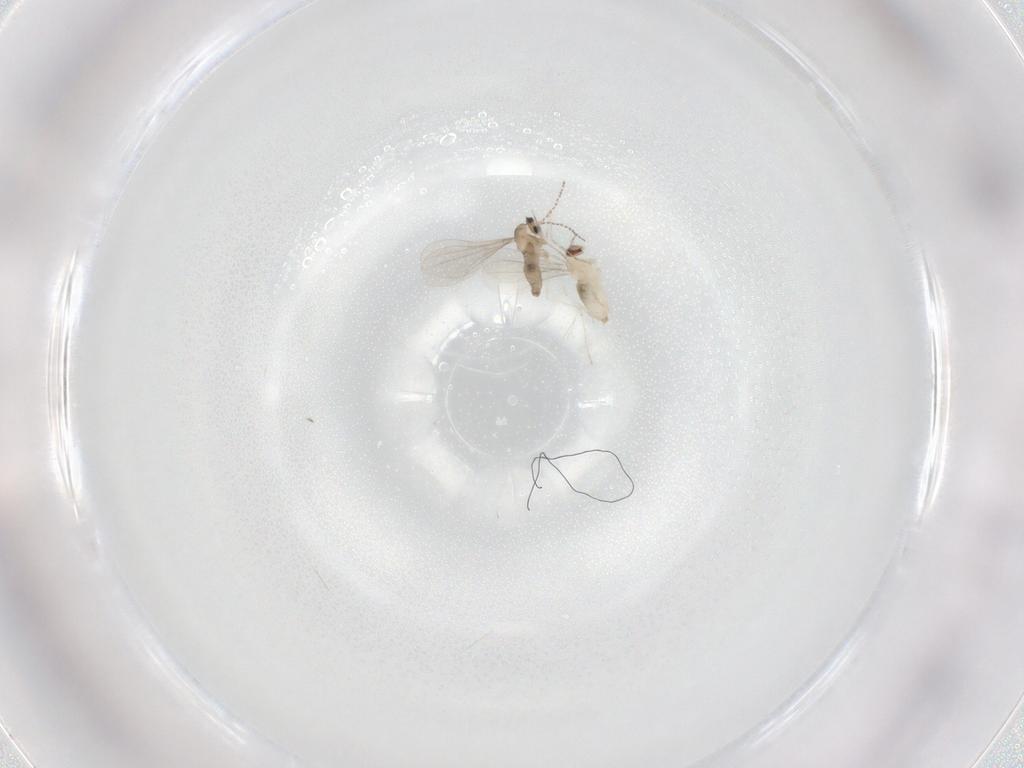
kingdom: Animalia
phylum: Arthropoda
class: Insecta
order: Diptera
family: Cecidomyiidae
